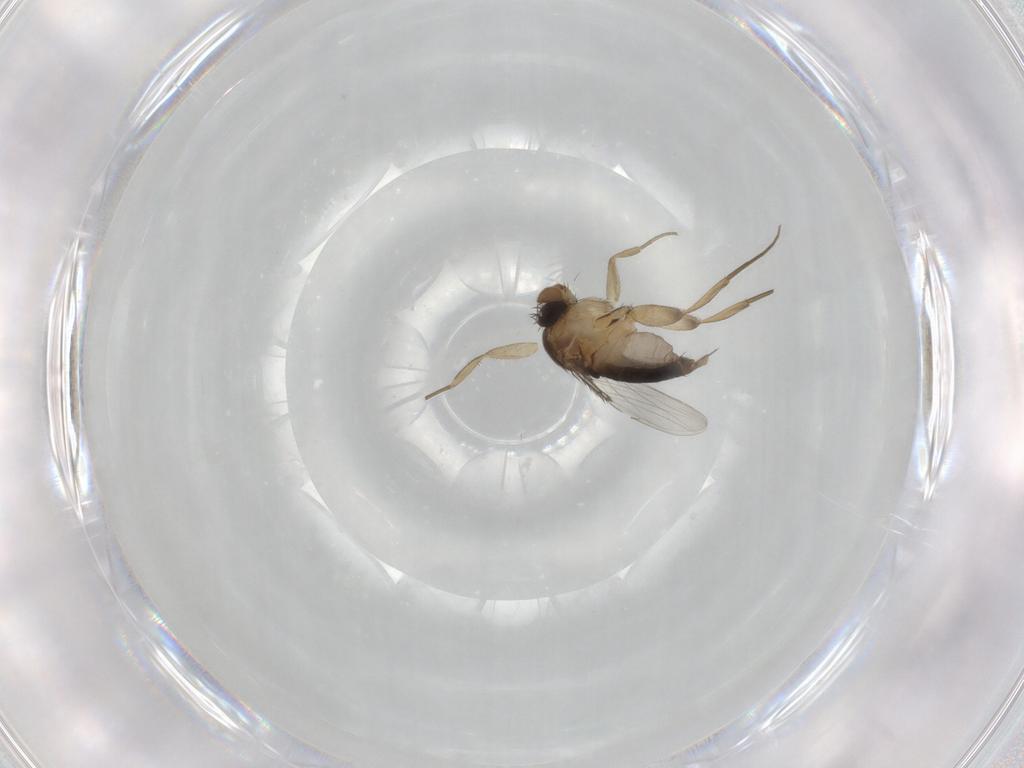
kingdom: Animalia
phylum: Arthropoda
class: Insecta
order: Diptera
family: Phoridae
